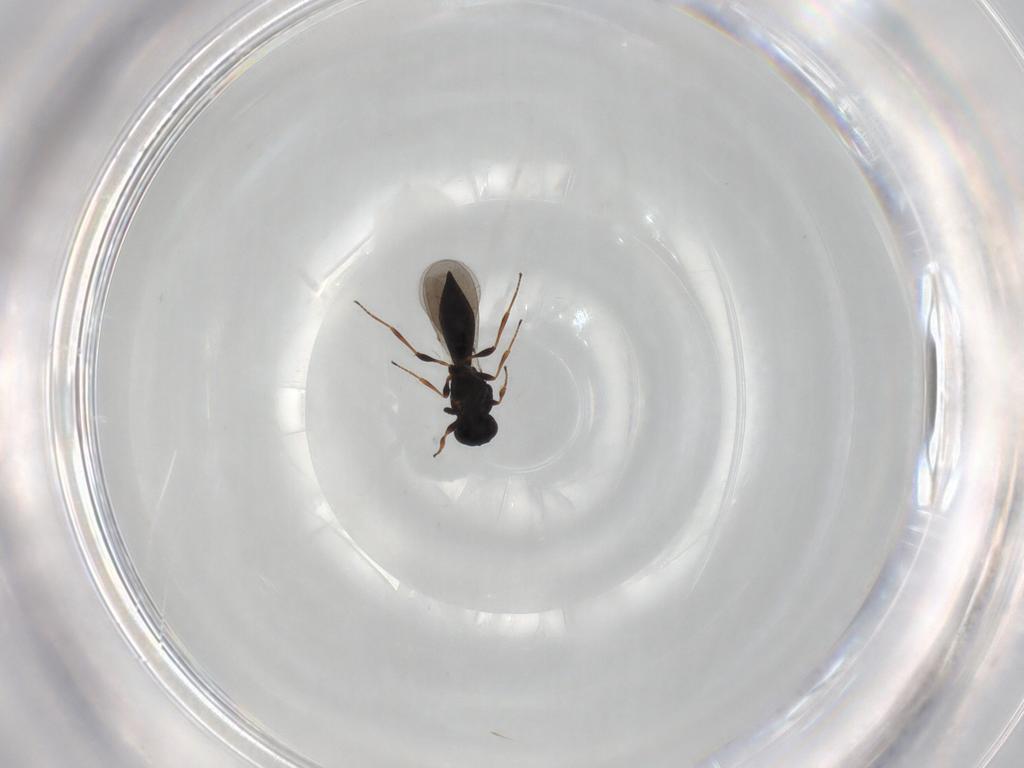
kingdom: Animalia
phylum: Arthropoda
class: Insecta
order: Hymenoptera
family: Platygastridae
